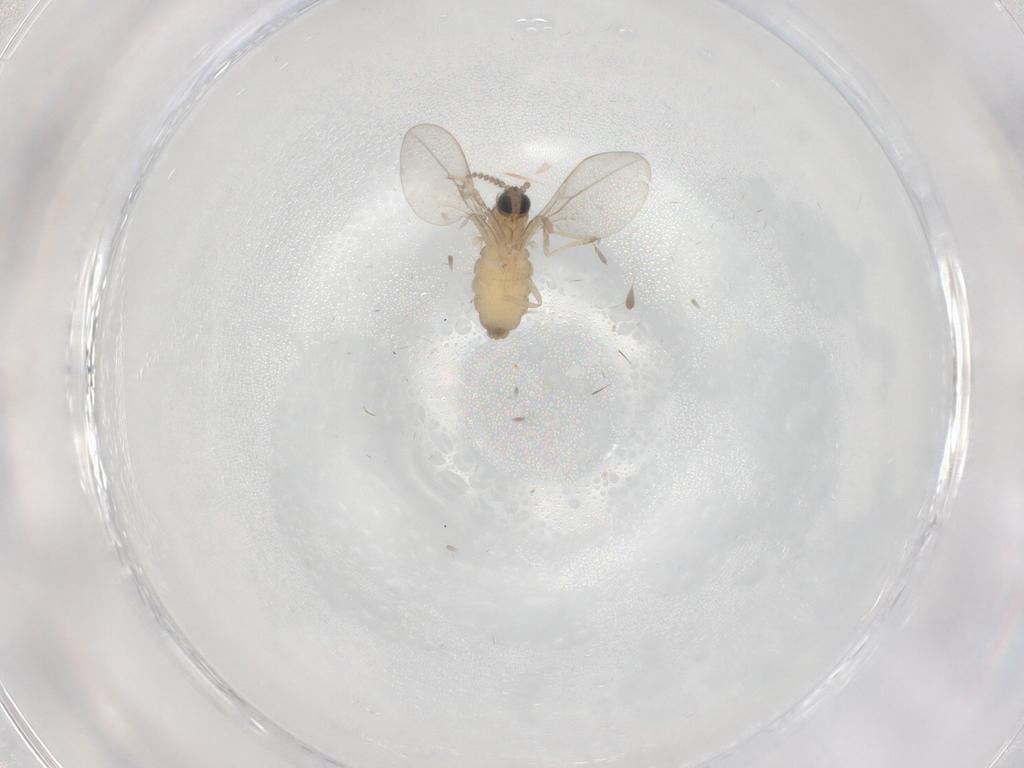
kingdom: Animalia
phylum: Arthropoda
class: Insecta
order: Diptera
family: Cecidomyiidae
